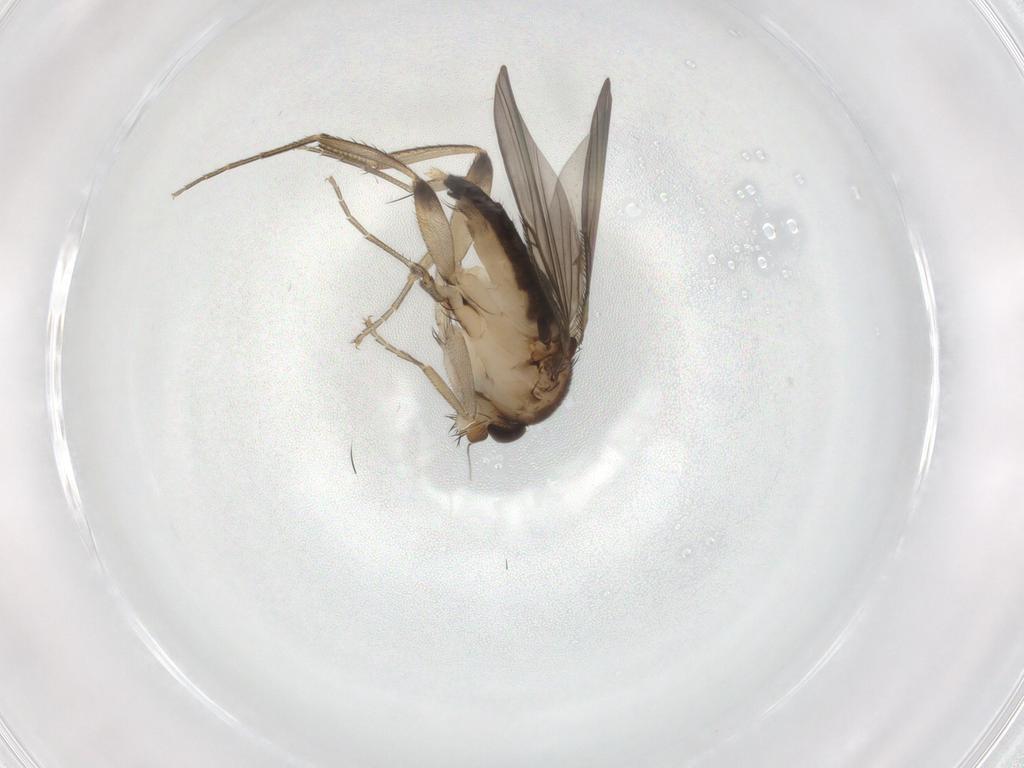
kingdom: Animalia
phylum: Arthropoda
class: Insecta
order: Diptera
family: Phoridae
